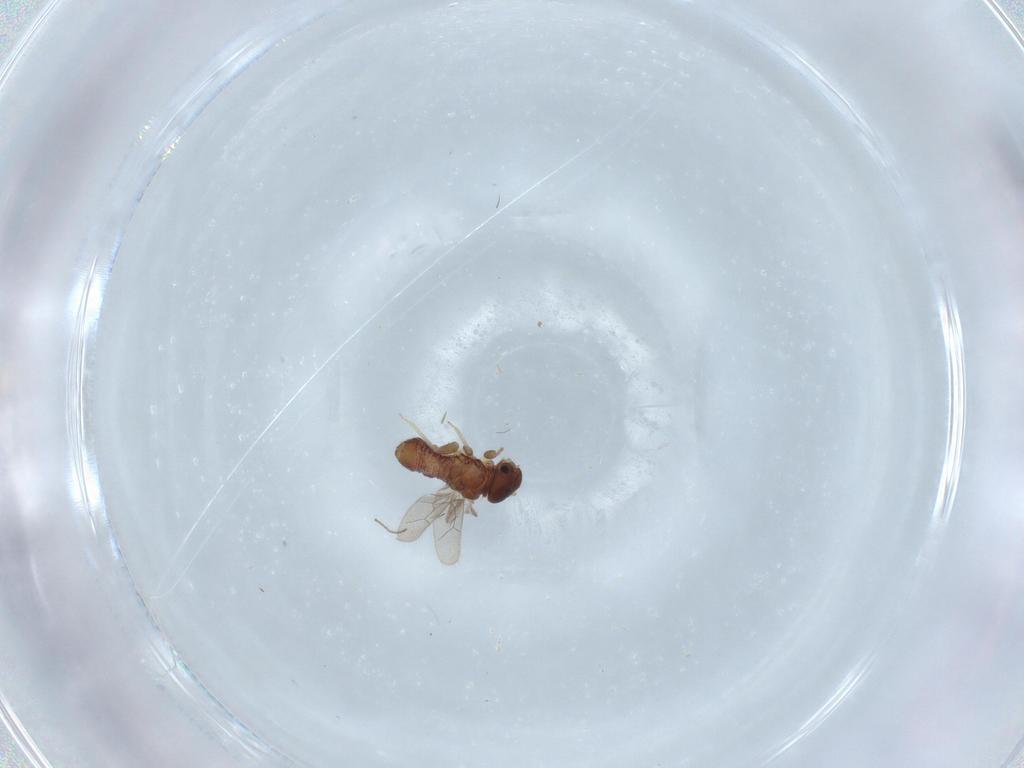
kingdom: Animalia
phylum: Arthropoda
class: Insecta
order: Psocodea
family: Archipsocidae
